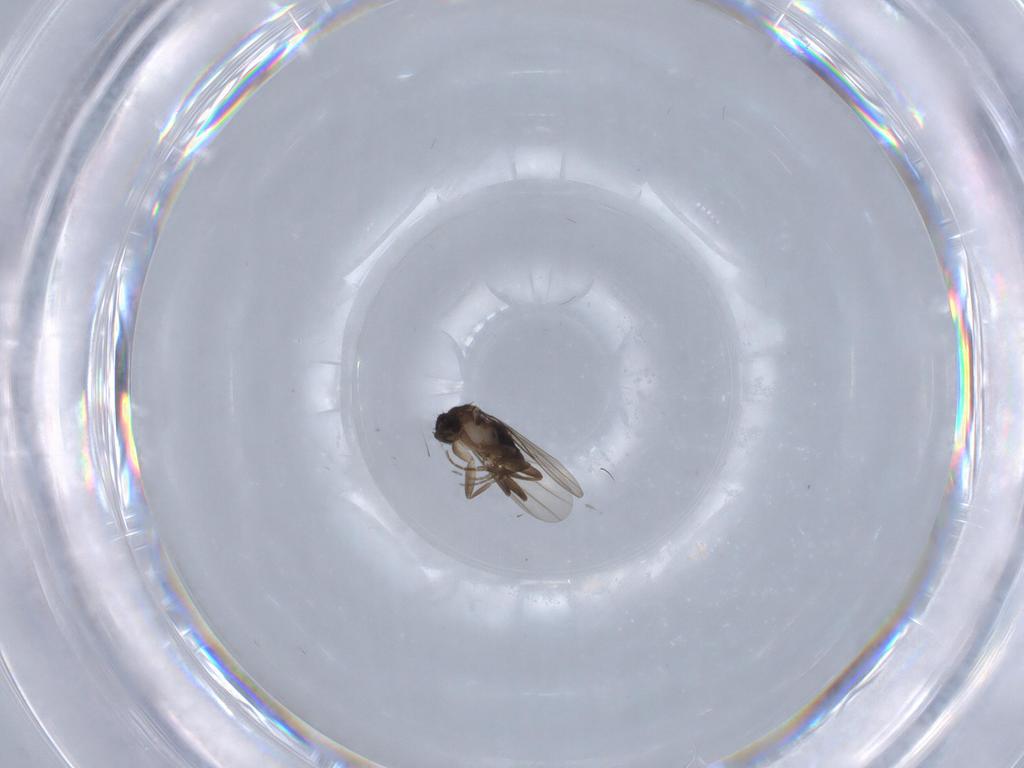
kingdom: Animalia
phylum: Arthropoda
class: Insecta
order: Diptera
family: Phoridae
